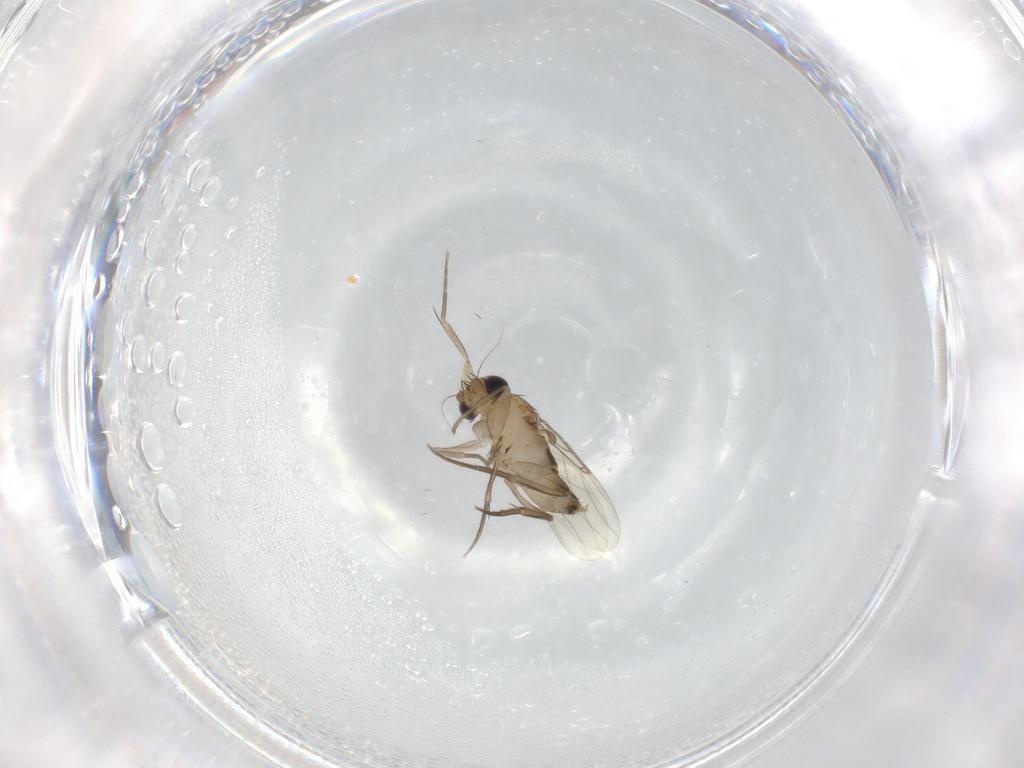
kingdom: Animalia
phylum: Arthropoda
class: Insecta
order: Diptera
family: Phoridae
